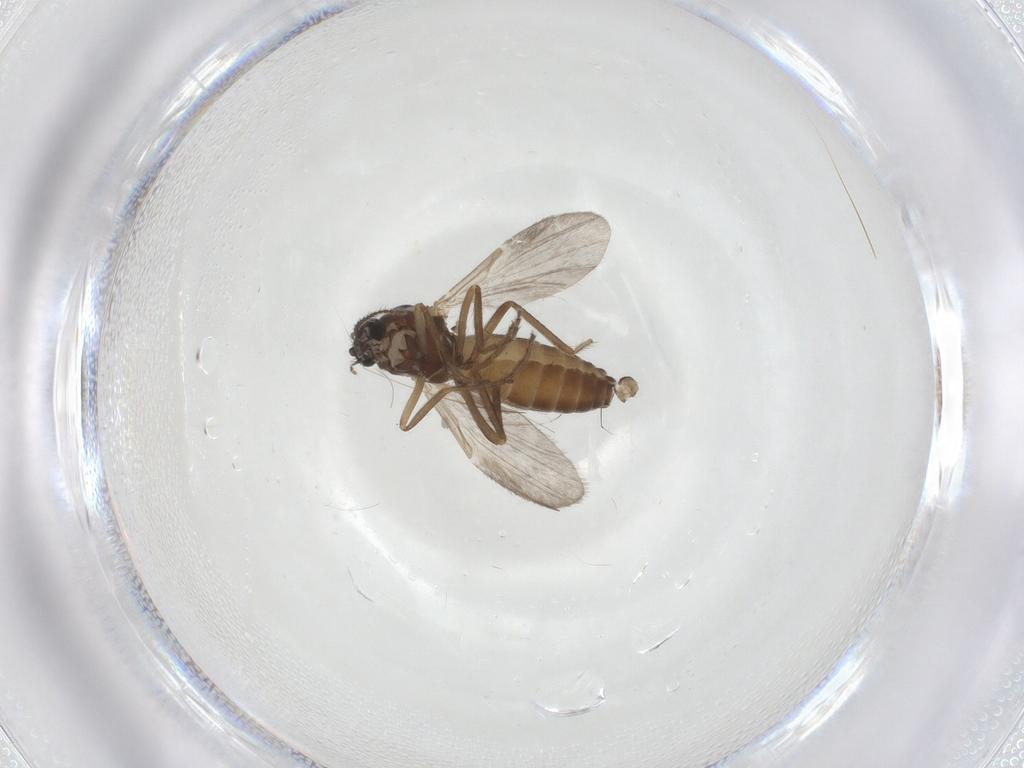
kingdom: Animalia
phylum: Arthropoda
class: Insecta
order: Diptera
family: Ceratopogonidae
